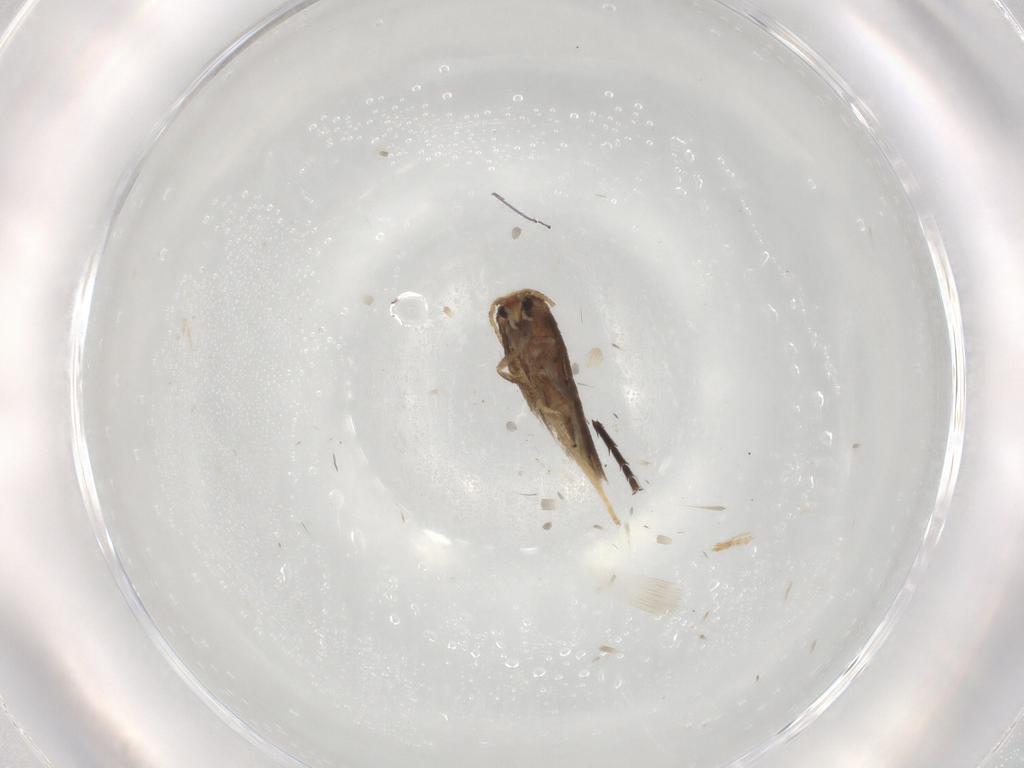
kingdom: Animalia
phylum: Arthropoda
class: Insecta
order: Lepidoptera
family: Nepticulidae
